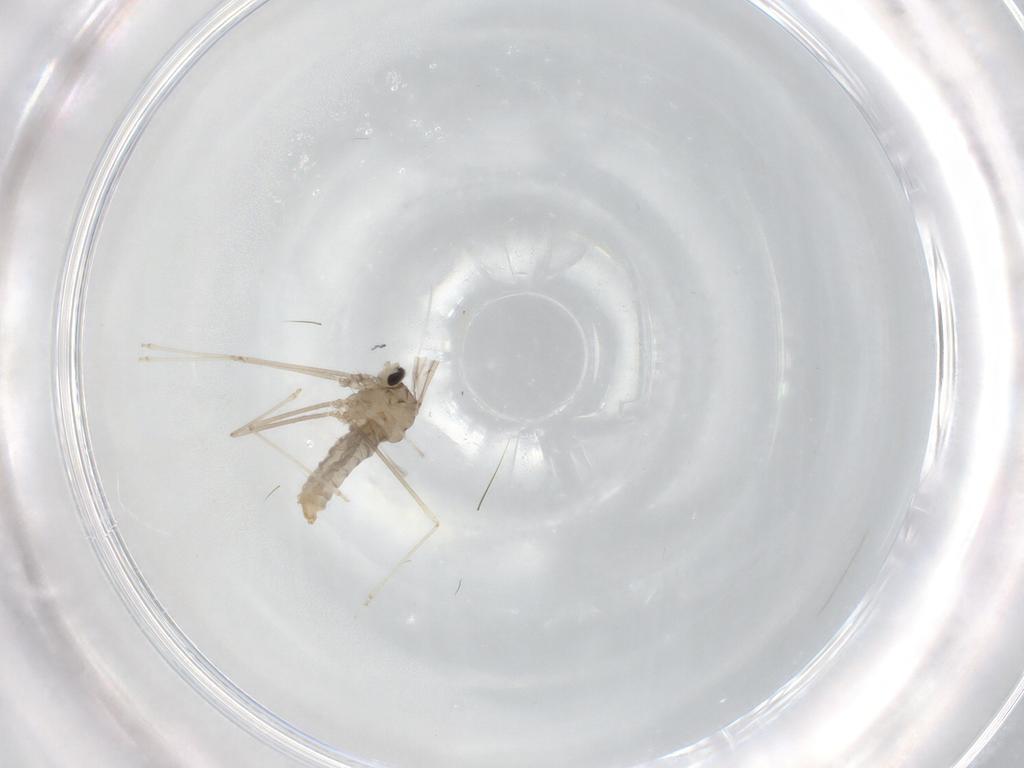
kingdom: Animalia
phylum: Arthropoda
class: Insecta
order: Diptera
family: Cecidomyiidae
